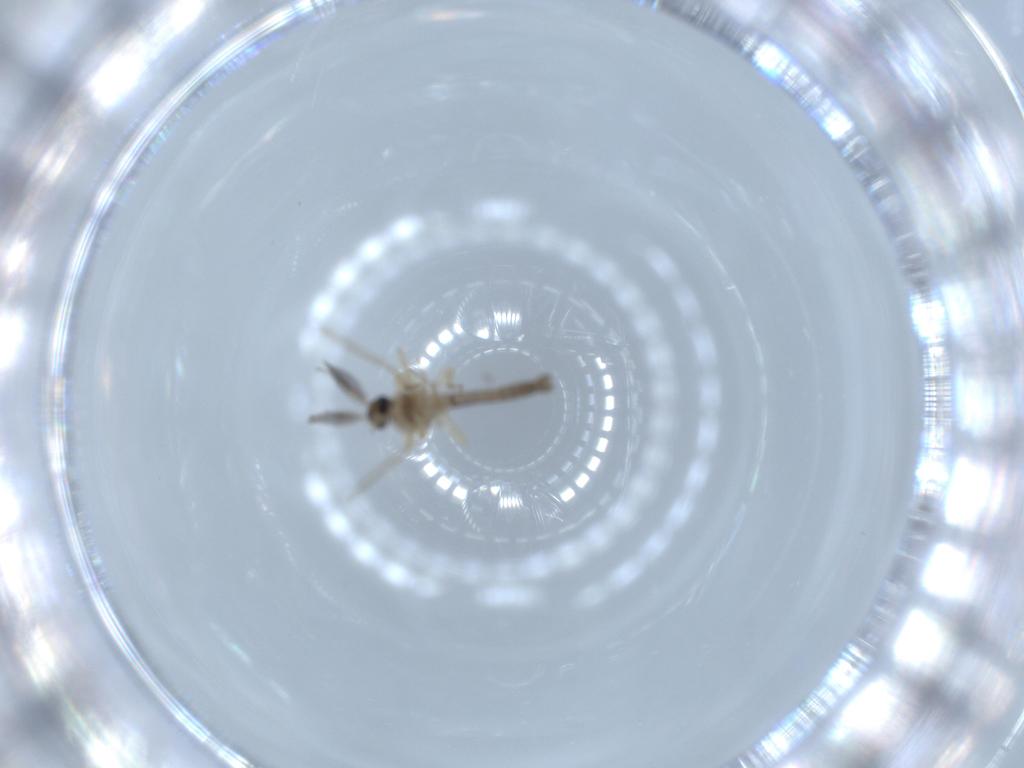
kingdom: Animalia
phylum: Arthropoda
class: Insecta
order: Diptera
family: Ceratopogonidae
